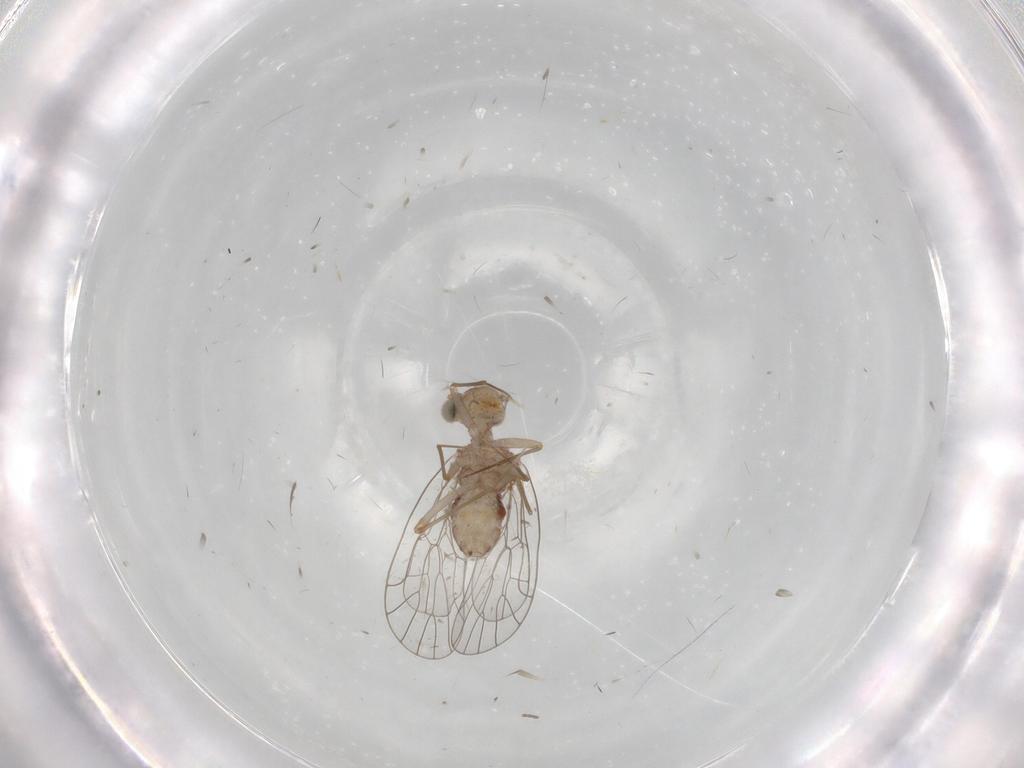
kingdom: Animalia
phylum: Arthropoda
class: Insecta
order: Psocodea
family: Amphientomidae
